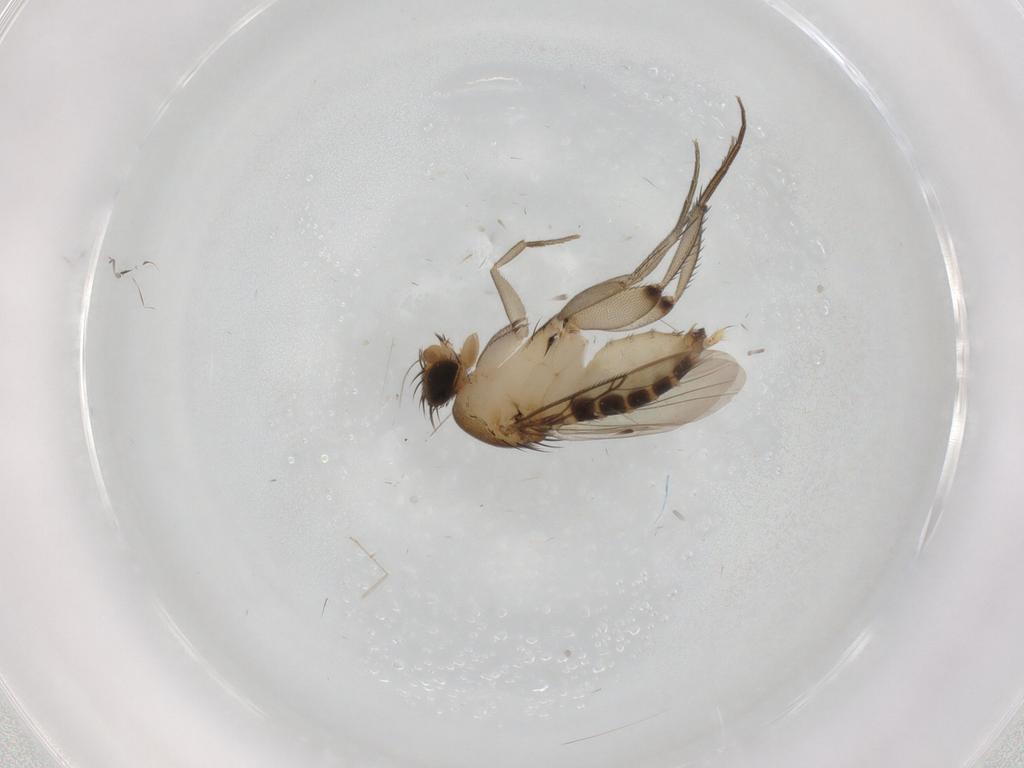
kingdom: Animalia
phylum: Arthropoda
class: Insecta
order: Diptera
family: Phoridae
